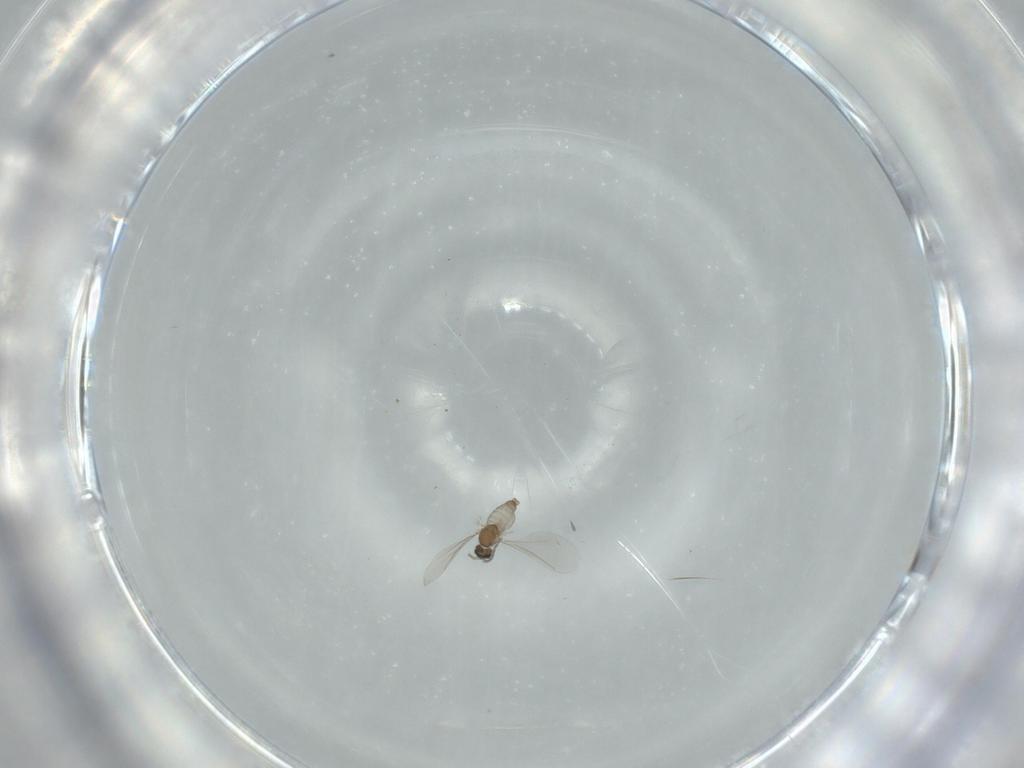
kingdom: Animalia
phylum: Arthropoda
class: Insecta
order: Diptera
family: Cecidomyiidae
